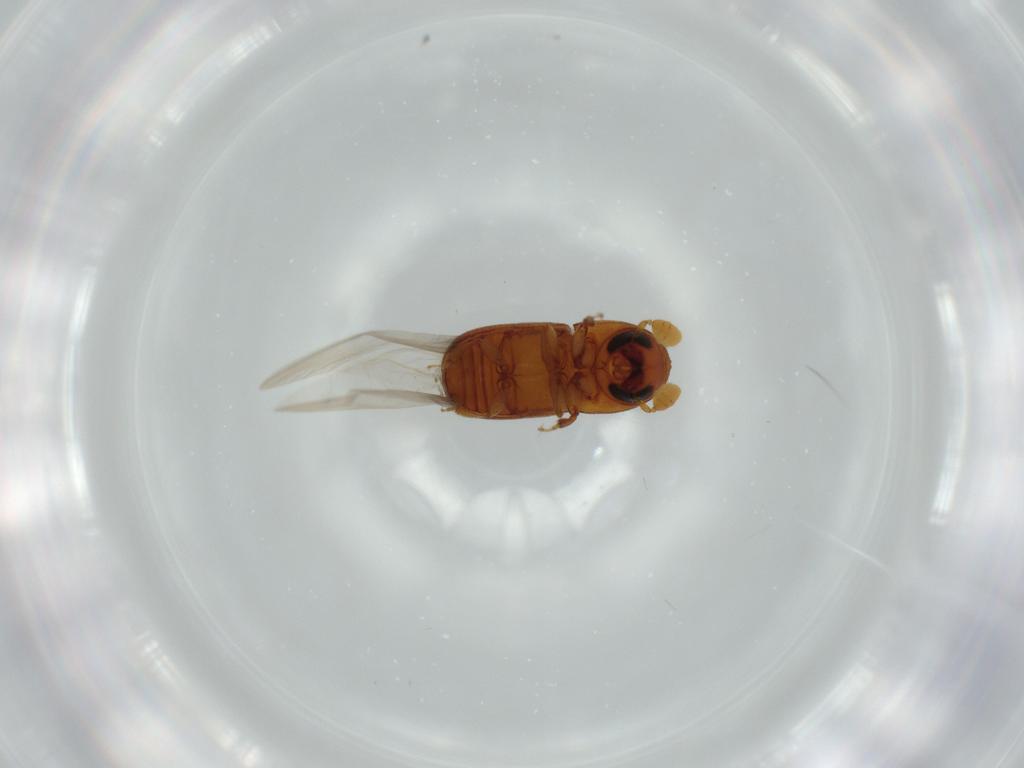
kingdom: Animalia
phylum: Arthropoda
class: Insecta
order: Coleoptera
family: Curculionidae
